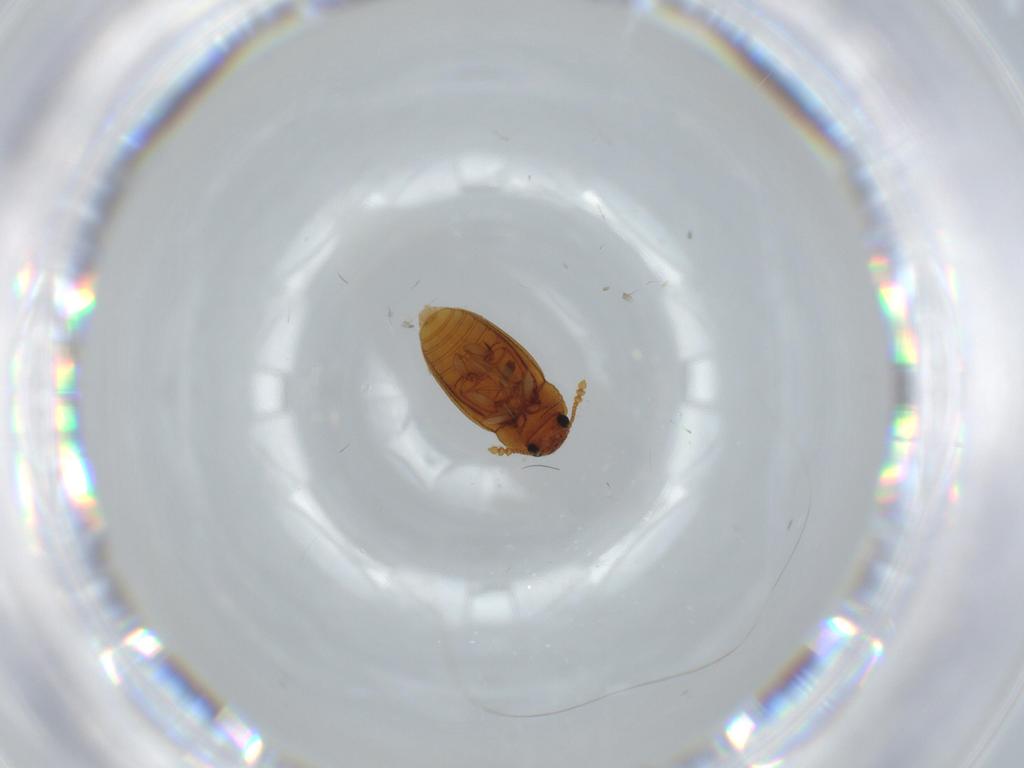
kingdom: Animalia
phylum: Arthropoda
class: Insecta
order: Coleoptera
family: Erotylidae
